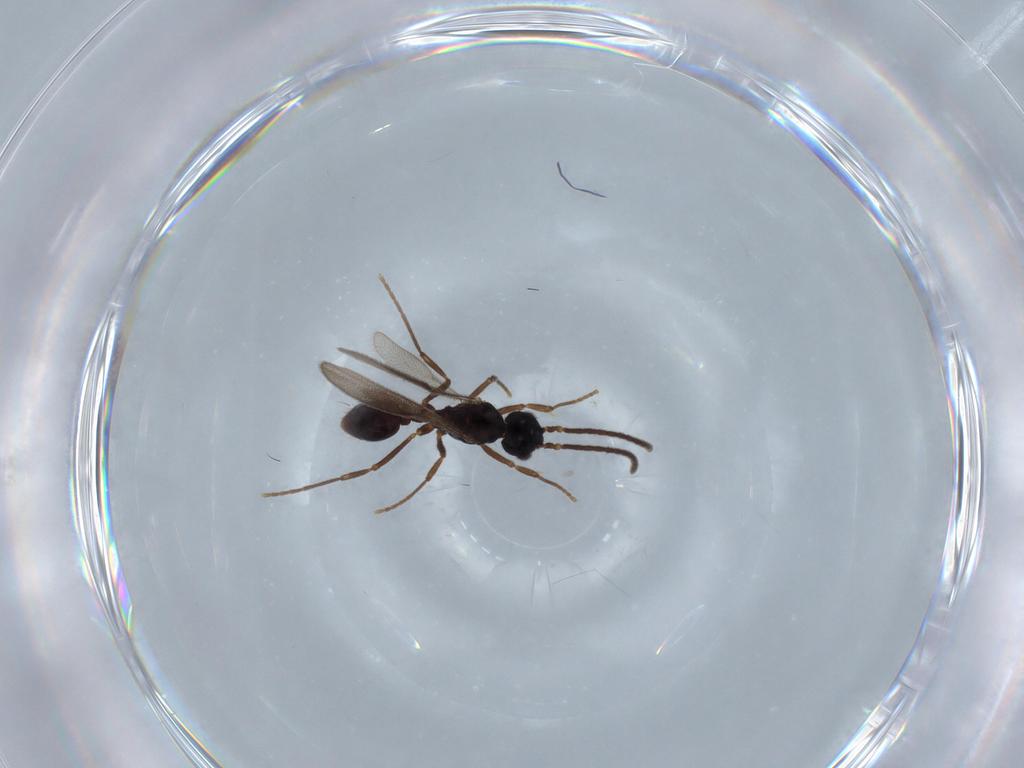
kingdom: Animalia
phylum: Arthropoda
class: Insecta
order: Hymenoptera
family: Formicidae
